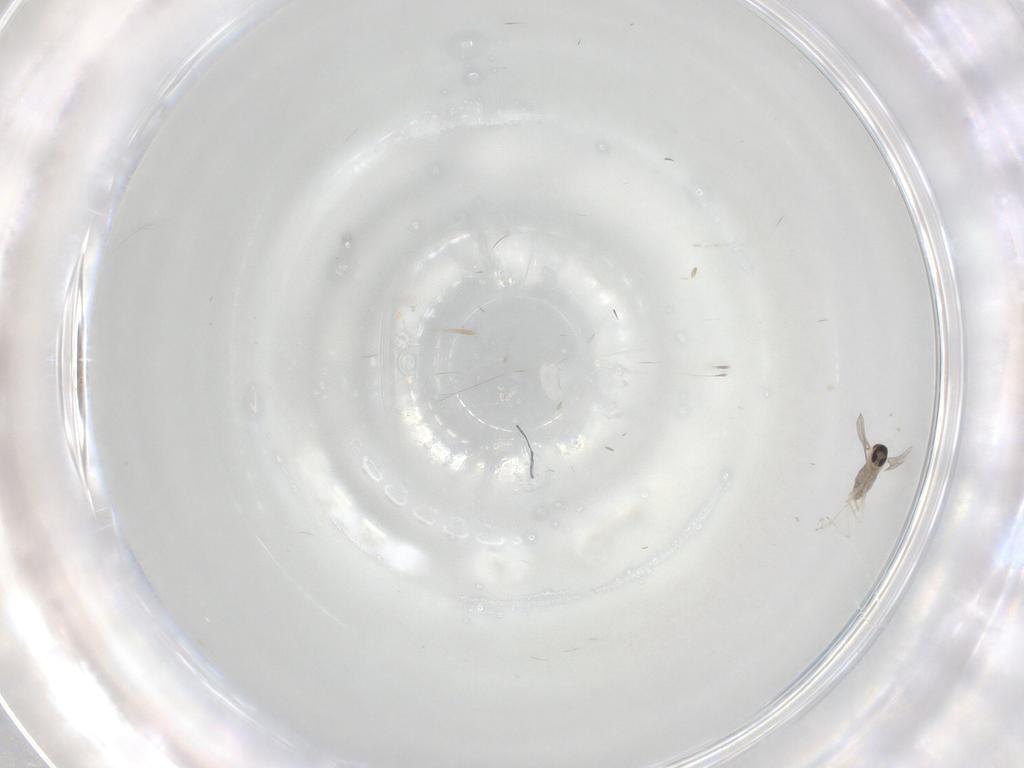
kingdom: Animalia
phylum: Arthropoda
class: Insecta
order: Diptera
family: Cecidomyiidae
